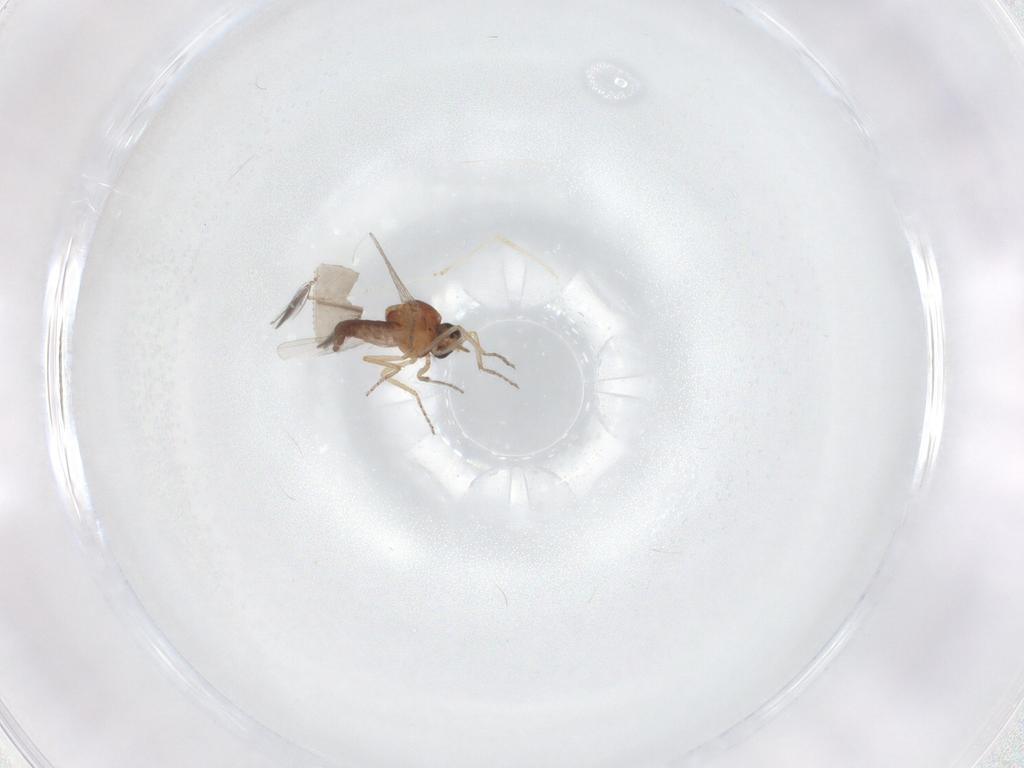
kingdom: Animalia
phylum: Arthropoda
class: Insecta
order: Diptera
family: Ceratopogonidae
